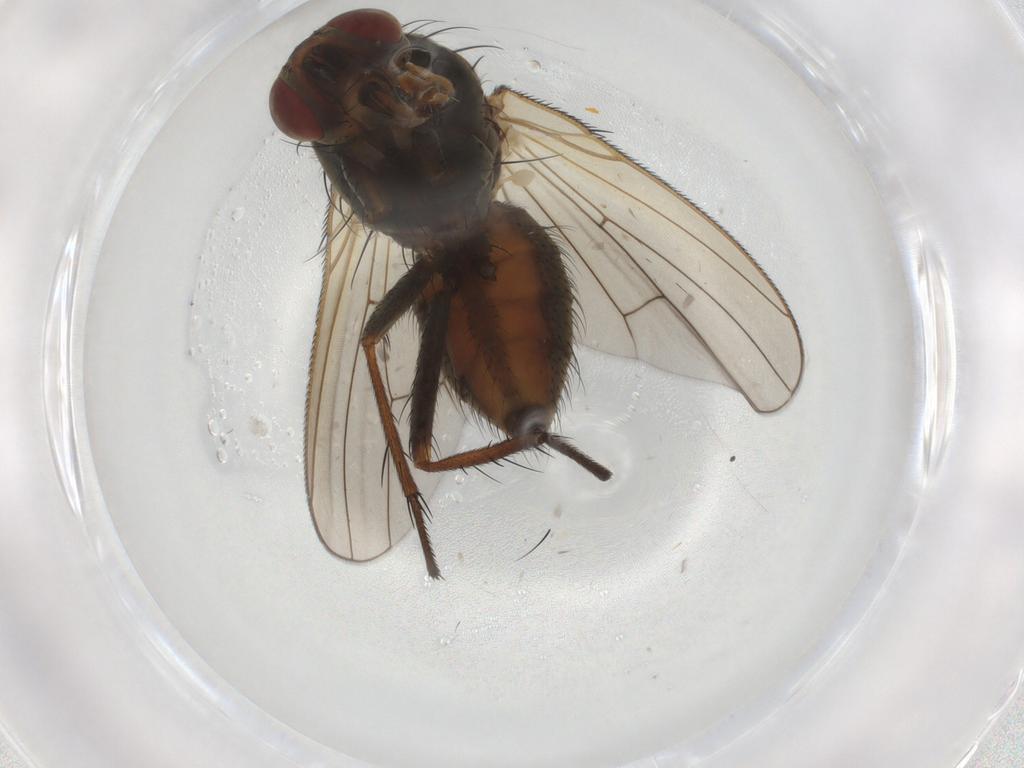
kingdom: Animalia
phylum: Arthropoda
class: Insecta
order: Diptera
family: Anthomyiidae
